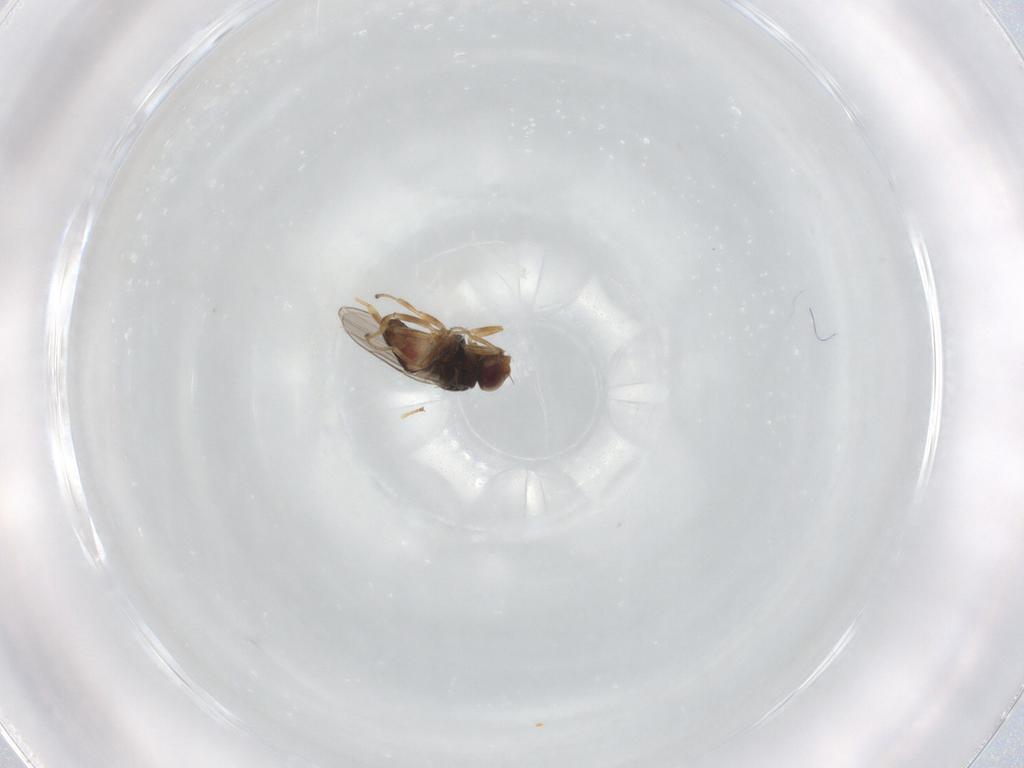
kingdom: Animalia
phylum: Arthropoda
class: Insecta
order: Diptera
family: Chloropidae
